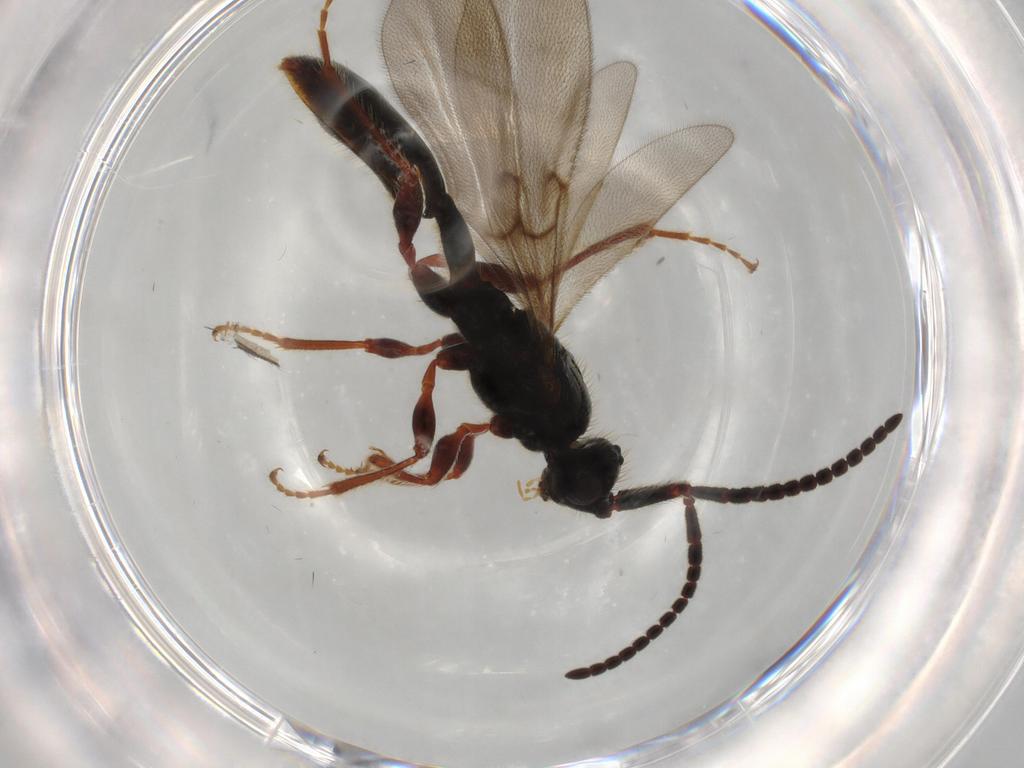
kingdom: Animalia
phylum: Arthropoda
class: Insecta
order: Hymenoptera
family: Diapriidae
